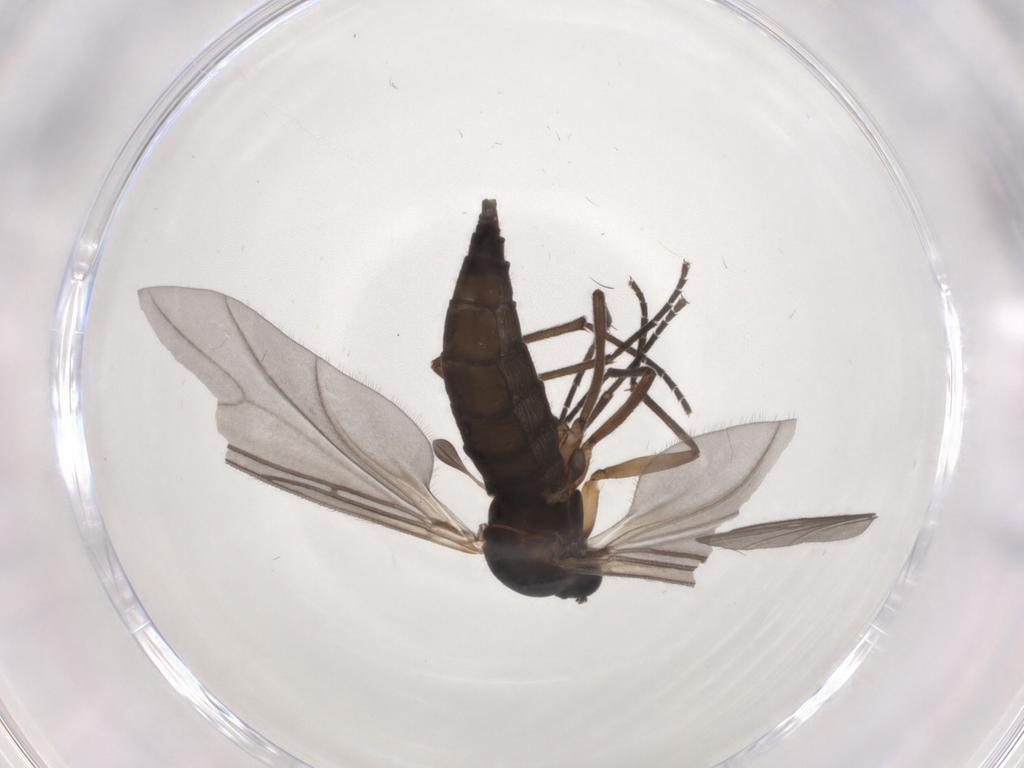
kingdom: Animalia
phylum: Arthropoda
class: Insecta
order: Diptera
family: Sciaridae
